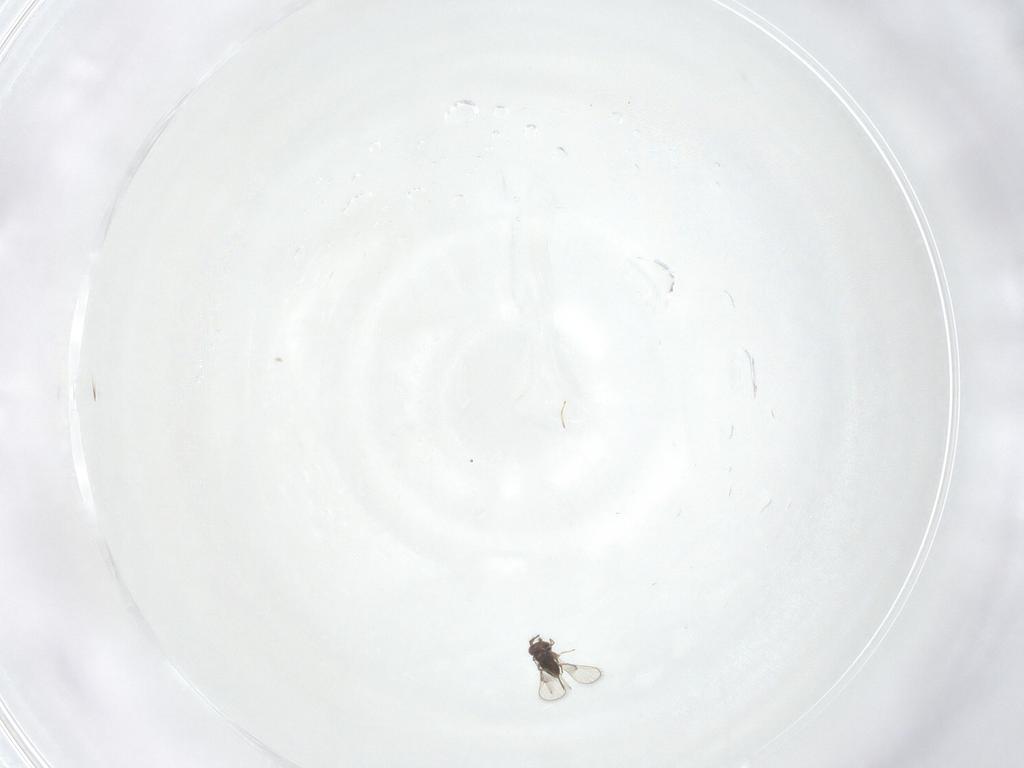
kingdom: Animalia
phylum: Arthropoda
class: Insecta
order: Hymenoptera
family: Trichogrammatidae
